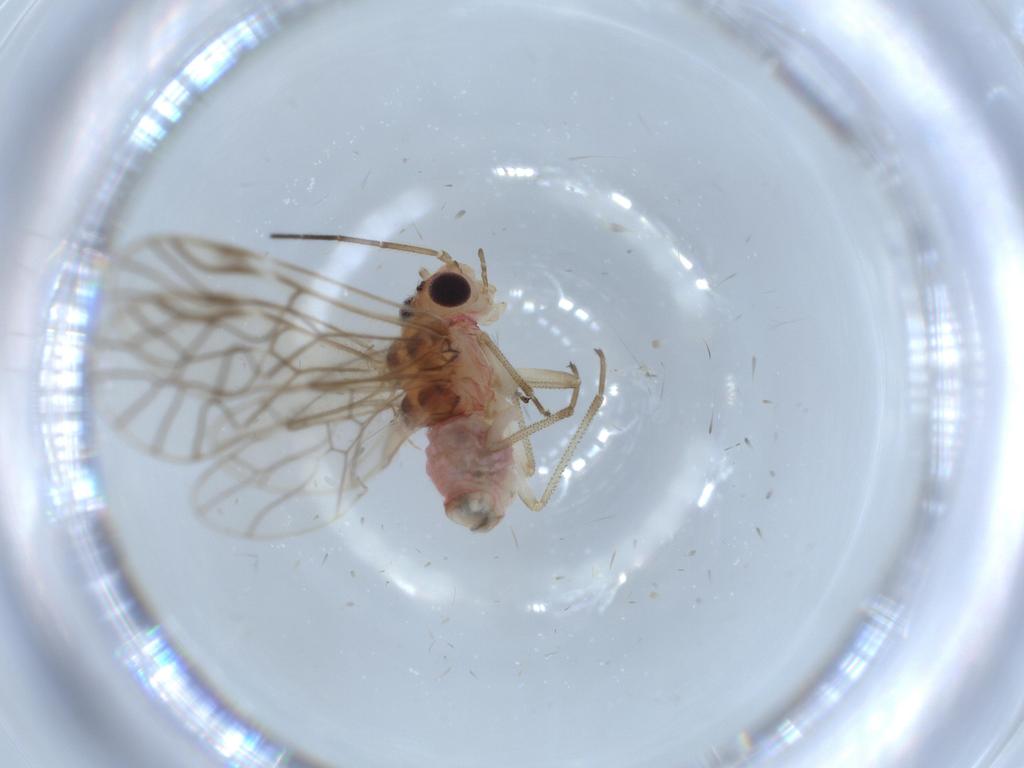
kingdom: Animalia
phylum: Arthropoda
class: Insecta
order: Psocodea
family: Amphipsocidae
